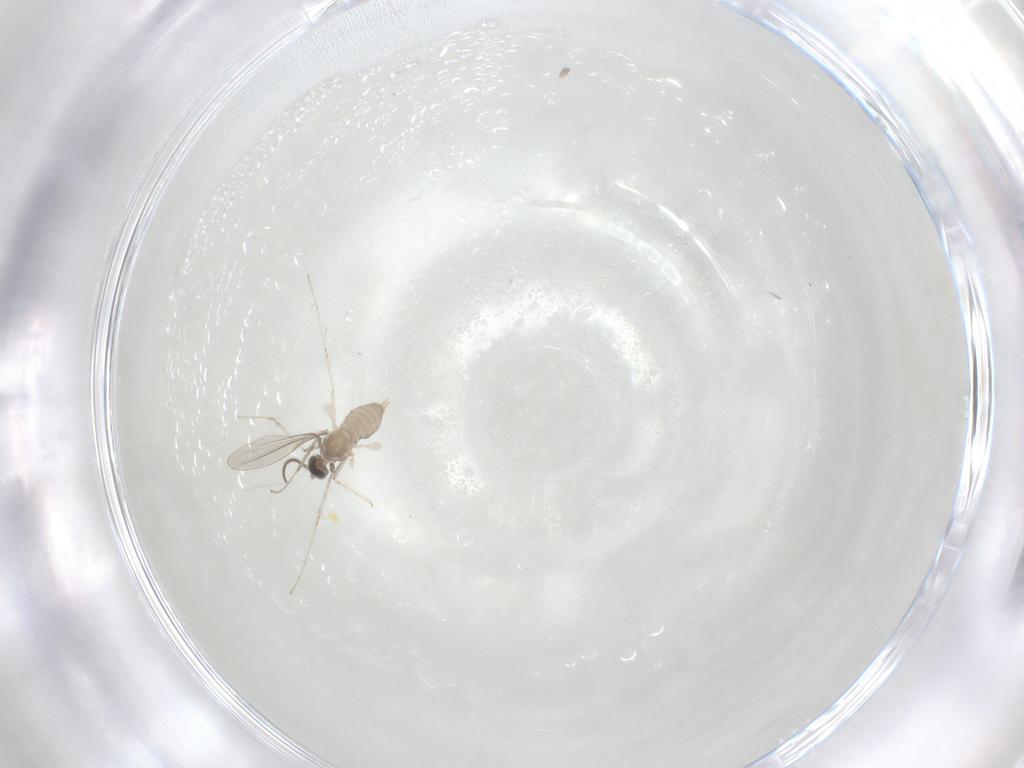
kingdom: Animalia
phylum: Arthropoda
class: Insecta
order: Diptera
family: Cecidomyiidae
